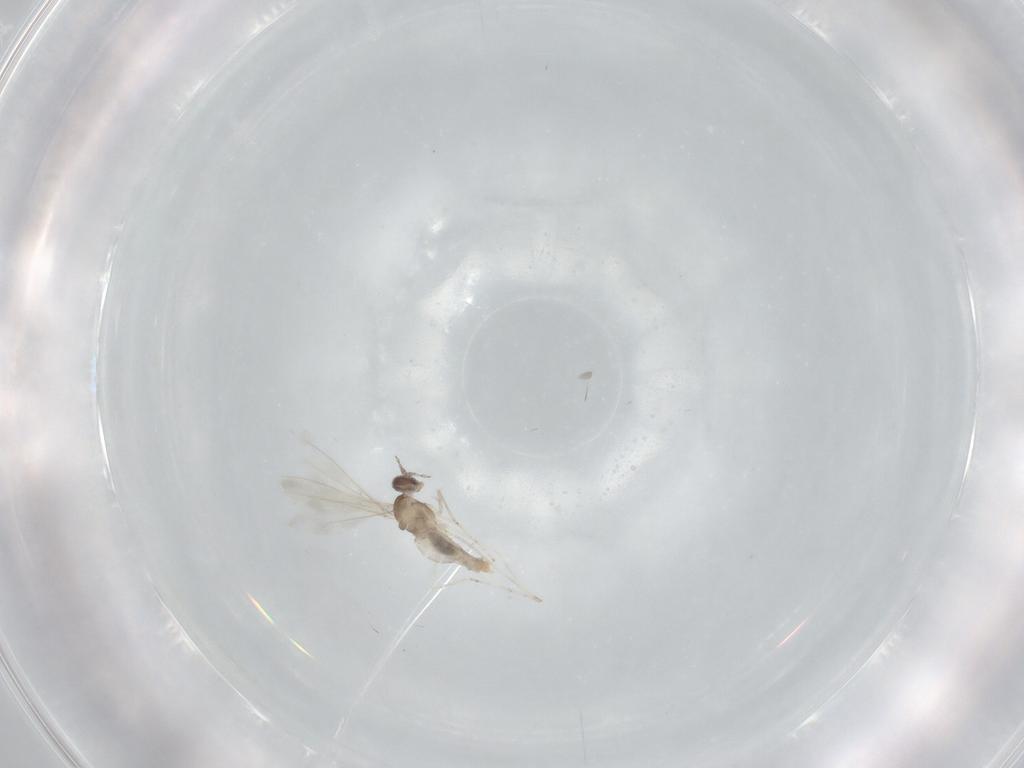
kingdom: Animalia
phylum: Arthropoda
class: Insecta
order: Diptera
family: Cecidomyiidae
